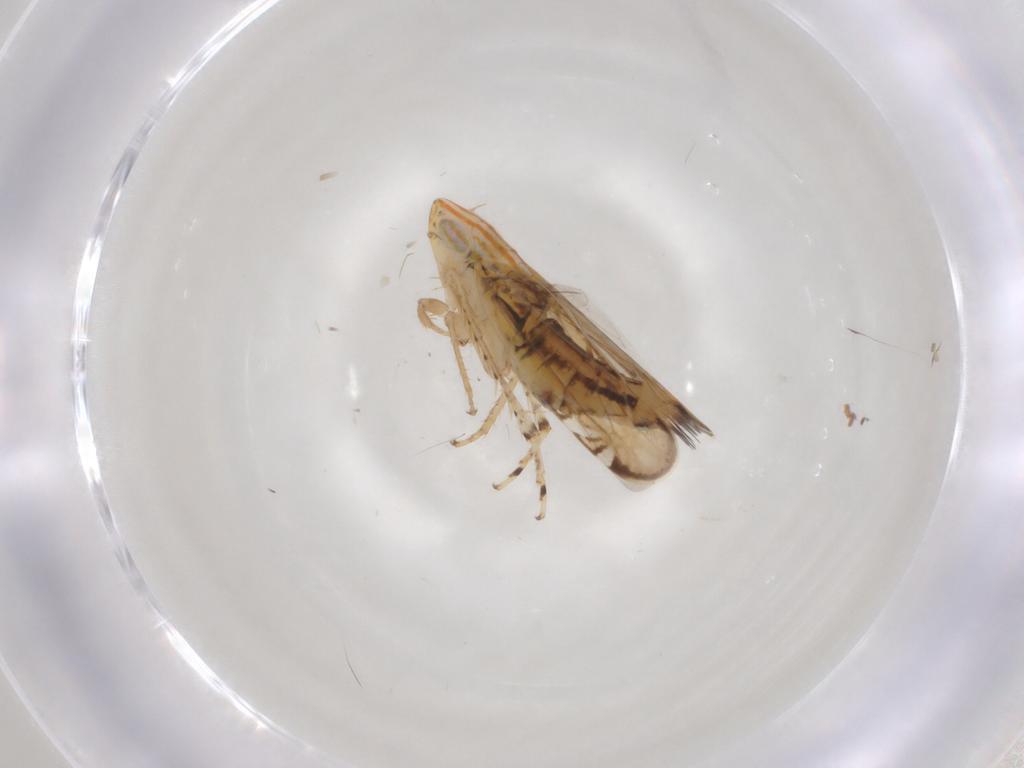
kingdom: Animalia
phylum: Arthropoda
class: Insecta
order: Hemiptera
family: Cicadellidae
